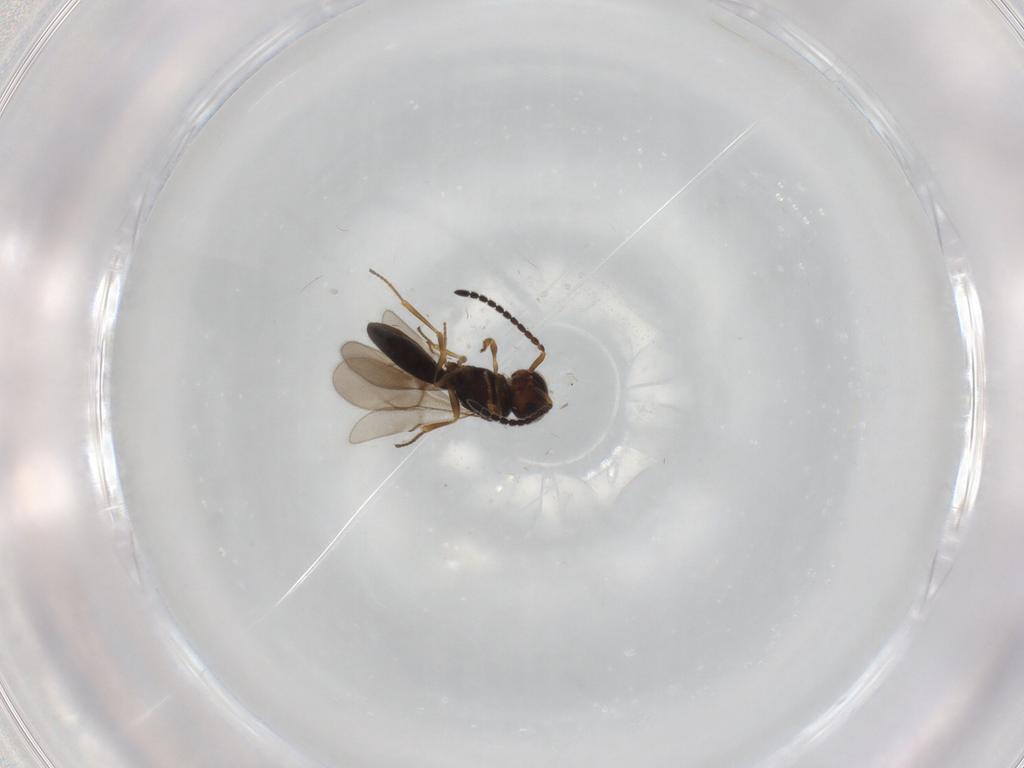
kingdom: Animalia
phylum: Arthropoda
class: Insecta
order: Hymenoptera
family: Scelionidae
